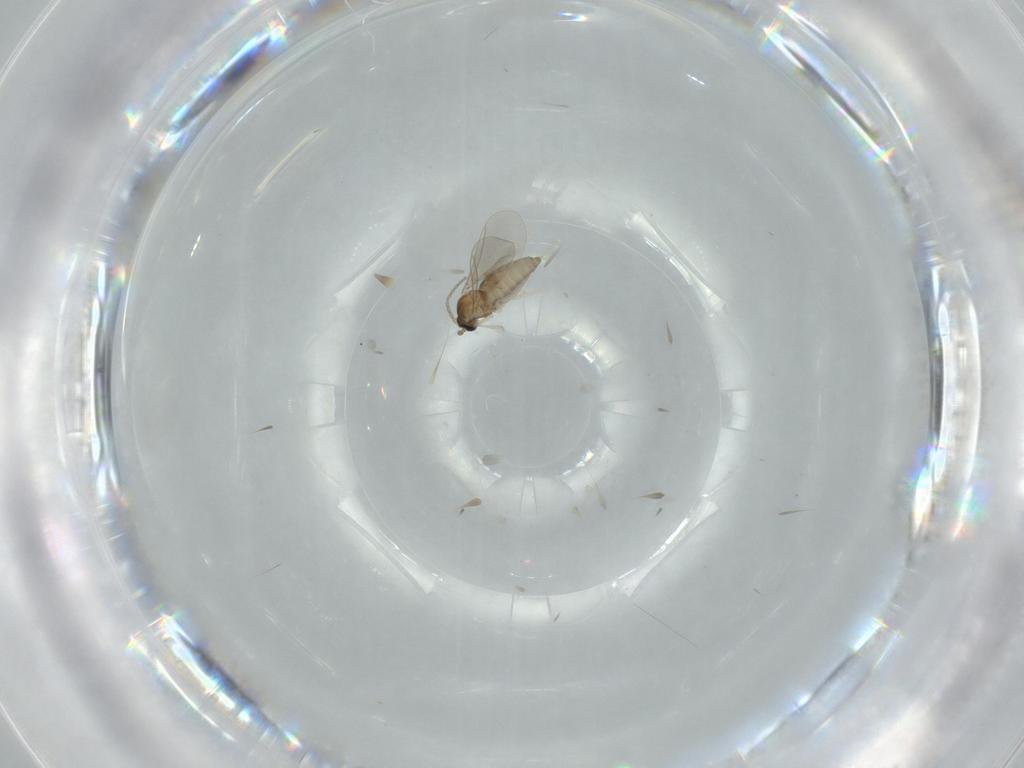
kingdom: Animalia
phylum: Arthropoda
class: Insecta
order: Diptera
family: Cecidomyiidae
